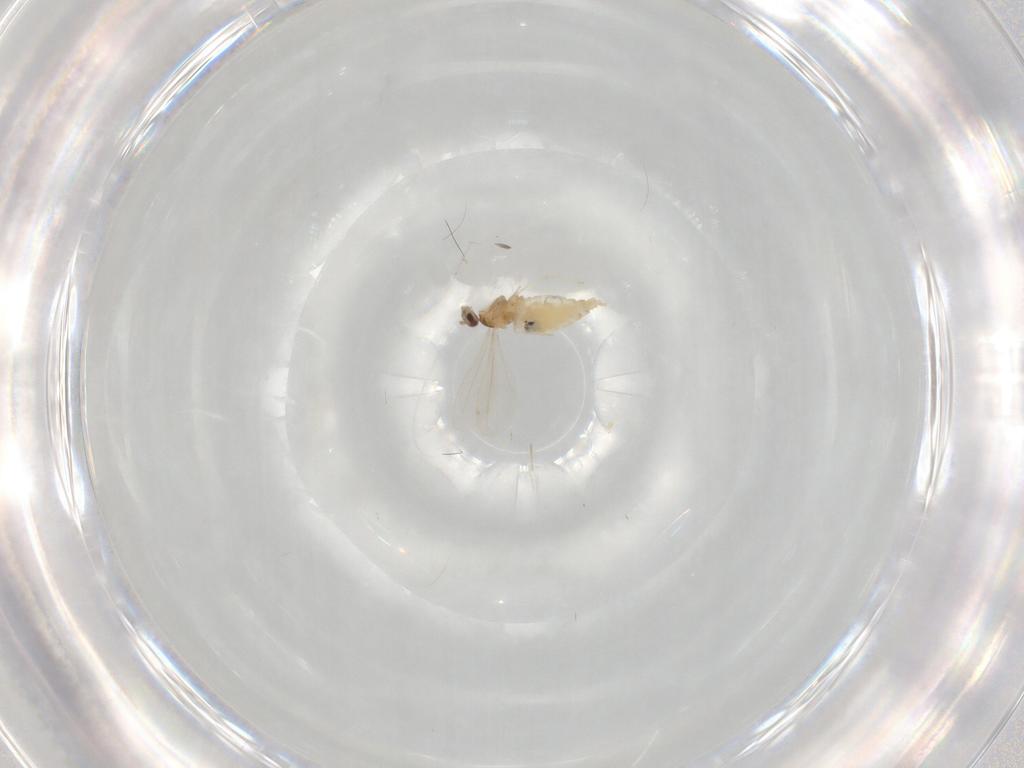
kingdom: Animalia
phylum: Arthropoda
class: Insecta
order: Diptera
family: Cecidomyiidae
